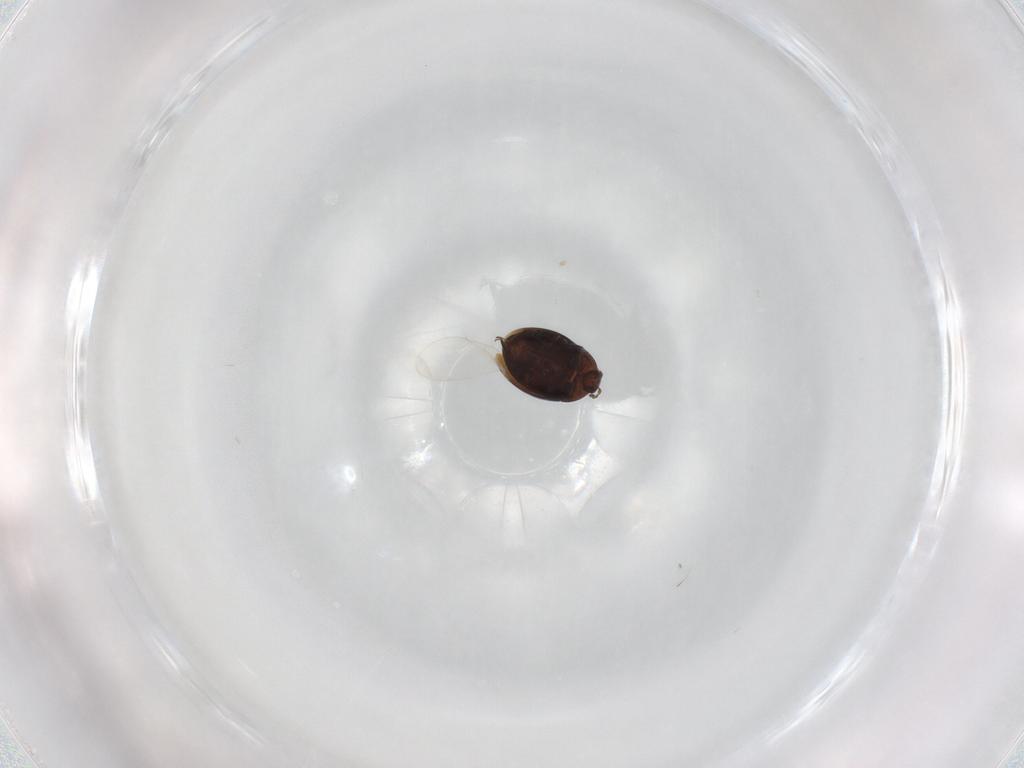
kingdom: Animalia
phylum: Arthropoda
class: Insecta
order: Coleoptera
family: Corylophidae
